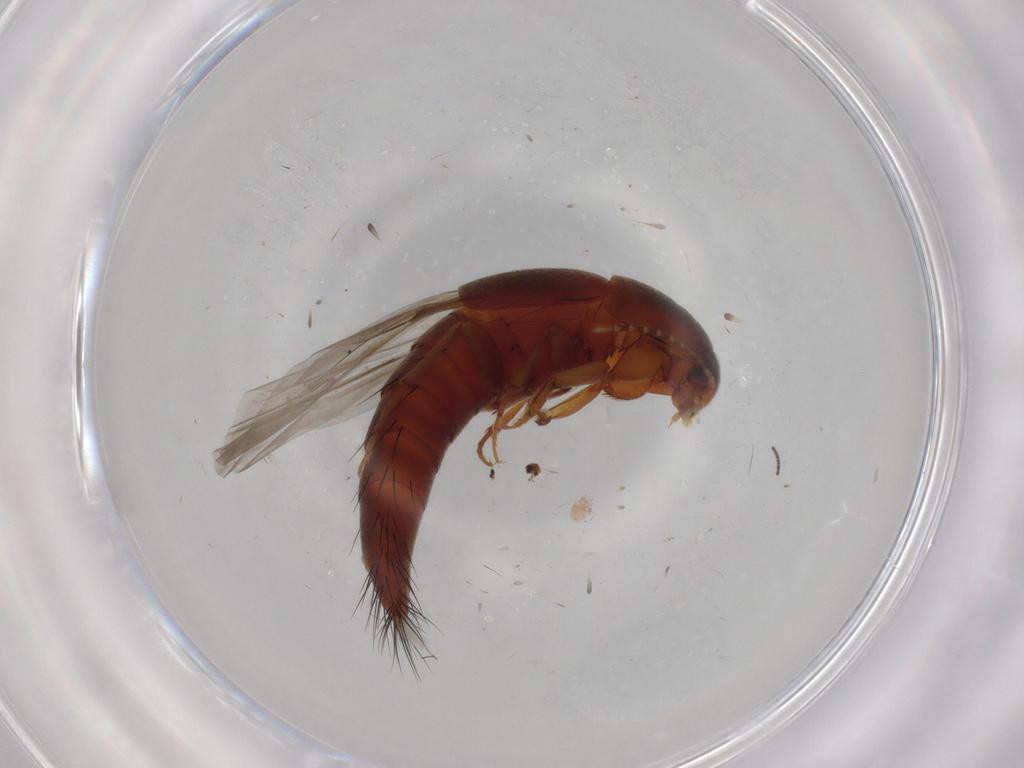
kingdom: Animalia
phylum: Arthropoda
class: Insecta
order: Coleoptera
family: Staphylinidae
